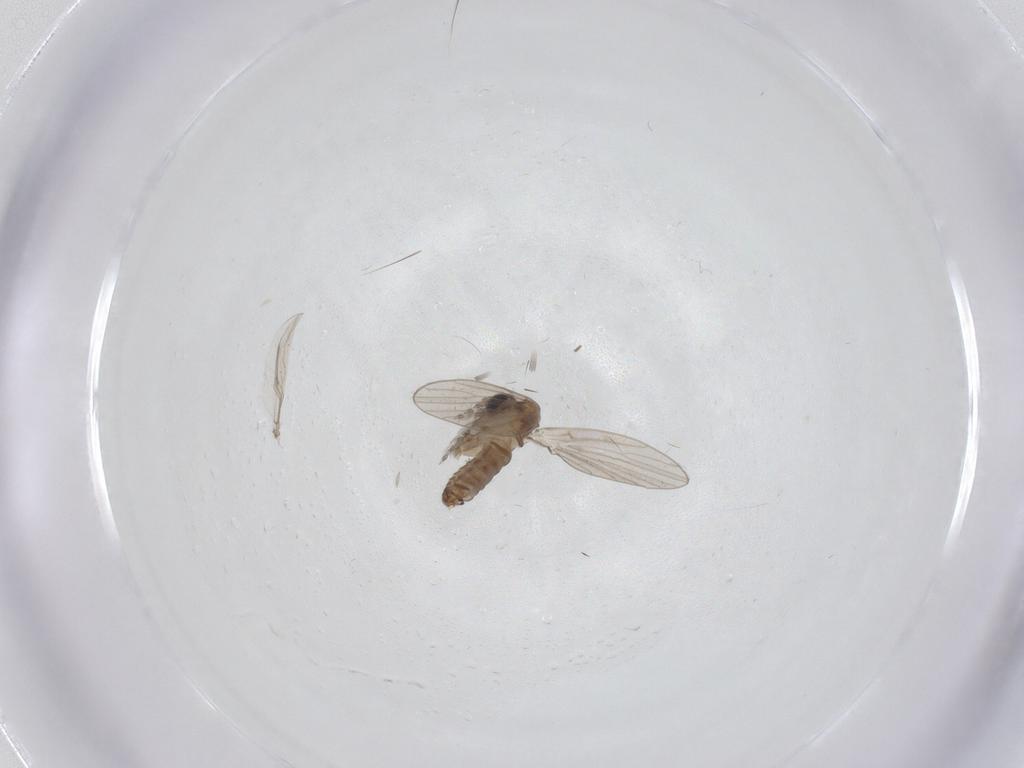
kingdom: Animalia
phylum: Arthropoda
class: Insecta
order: Diptera
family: Psychodidae
